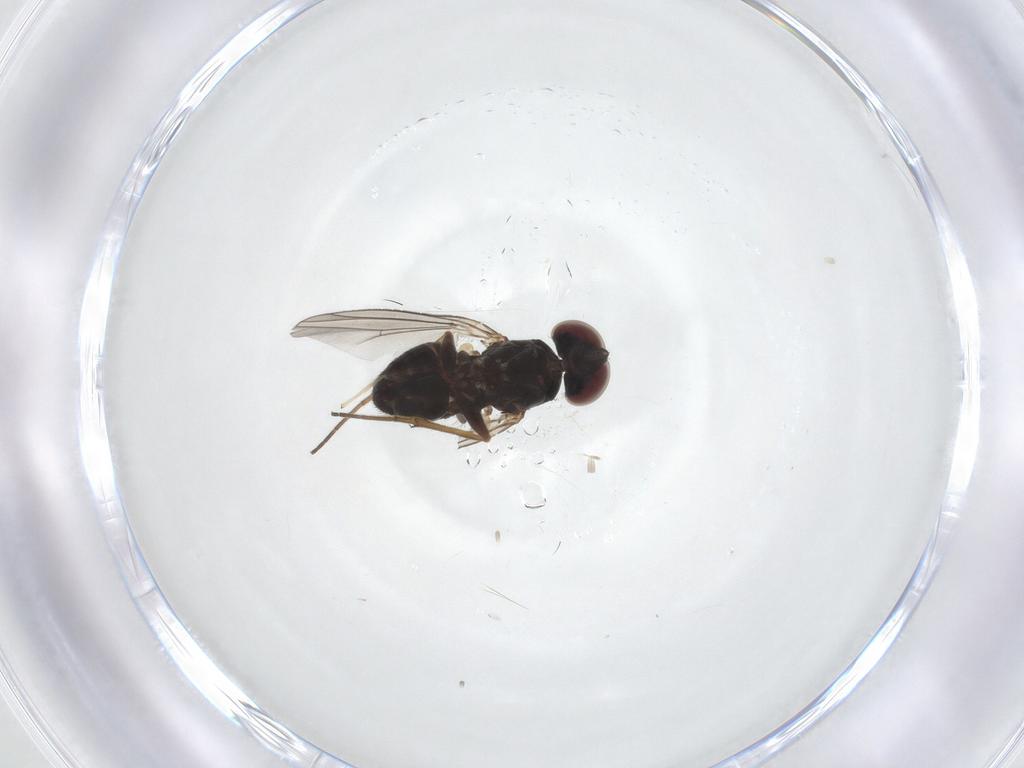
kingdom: Animalia
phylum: Arthropoda
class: Insecta
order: Diptera
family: Dolichopodidae
